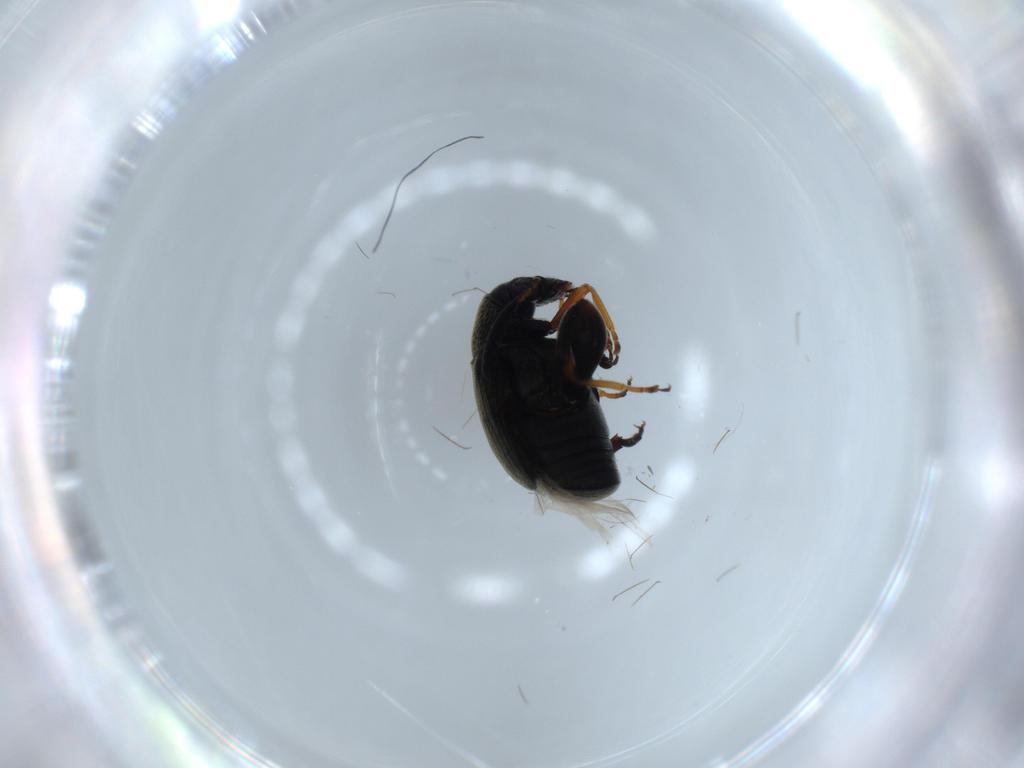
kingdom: Animalia
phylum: Arthropoda
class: Insecta
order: Coleoptera
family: Chrysomelidae
